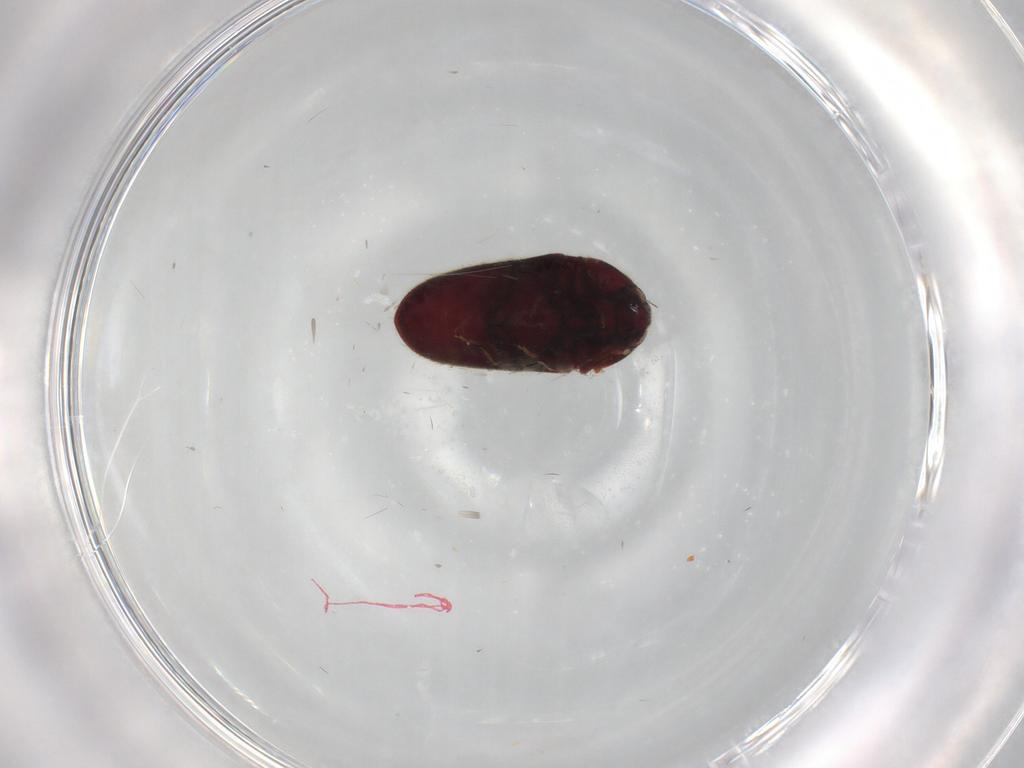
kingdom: Animalia
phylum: Arthropoda
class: Insecta
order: Coleoptera
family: Throscidae
